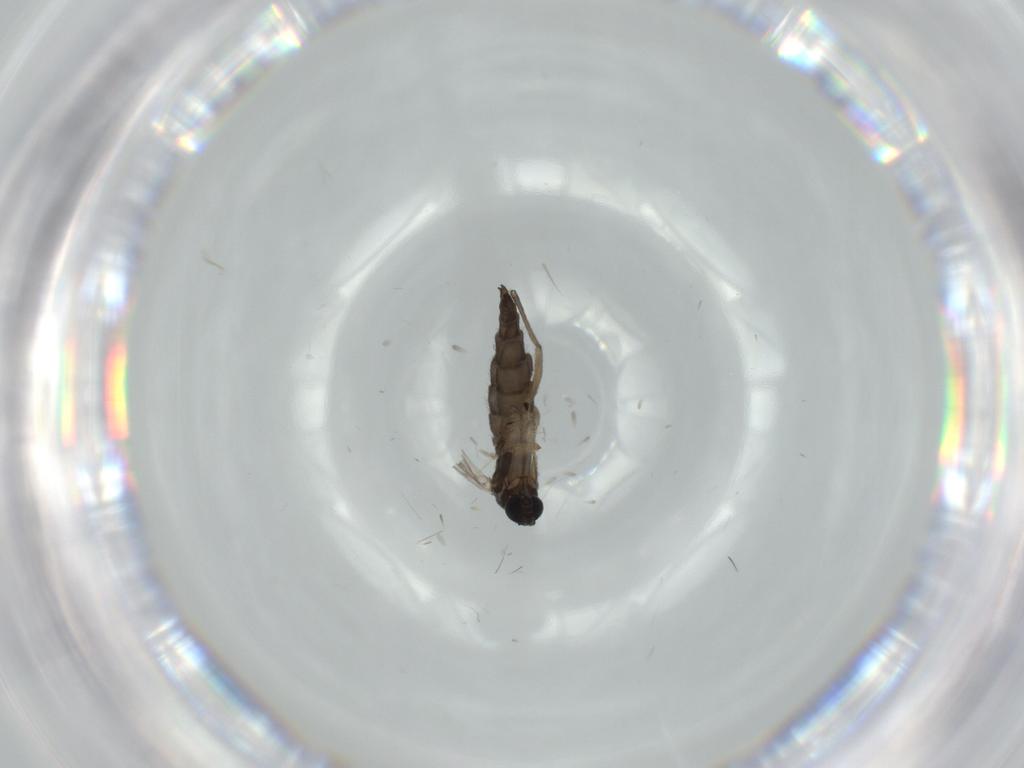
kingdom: Animalia
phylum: Arthropoda
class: Insecta
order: Diptera
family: Sciaridae
